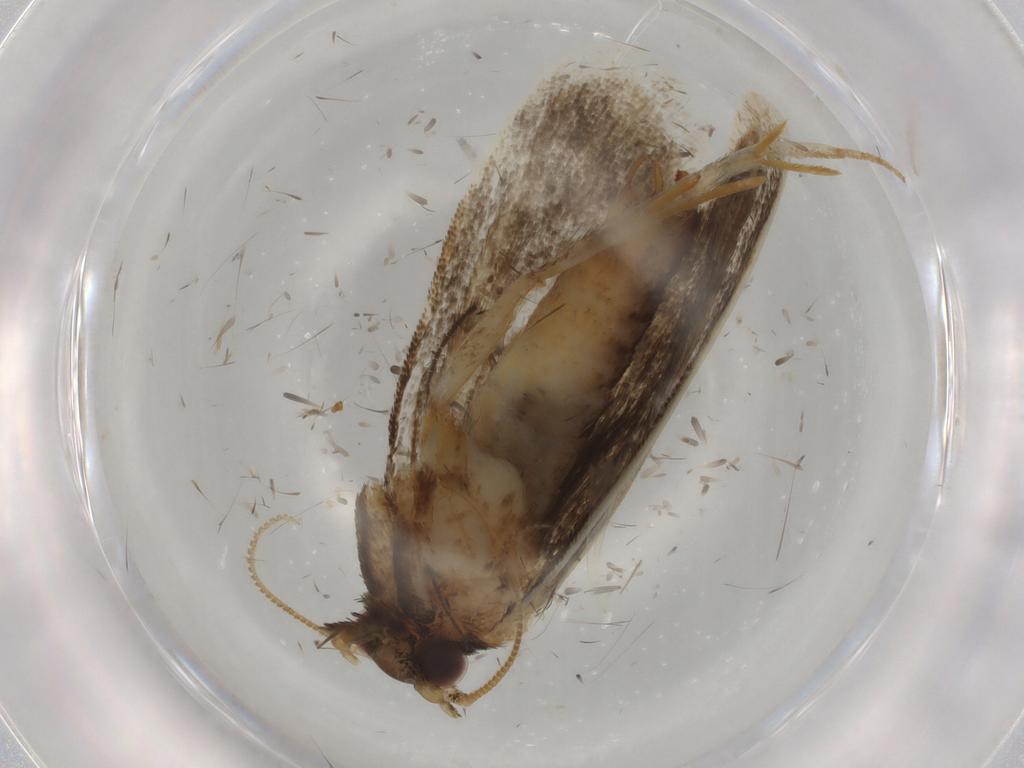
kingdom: Animalia
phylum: Arthropoda
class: Insecta
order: Lepidoptera
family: Tineidae
